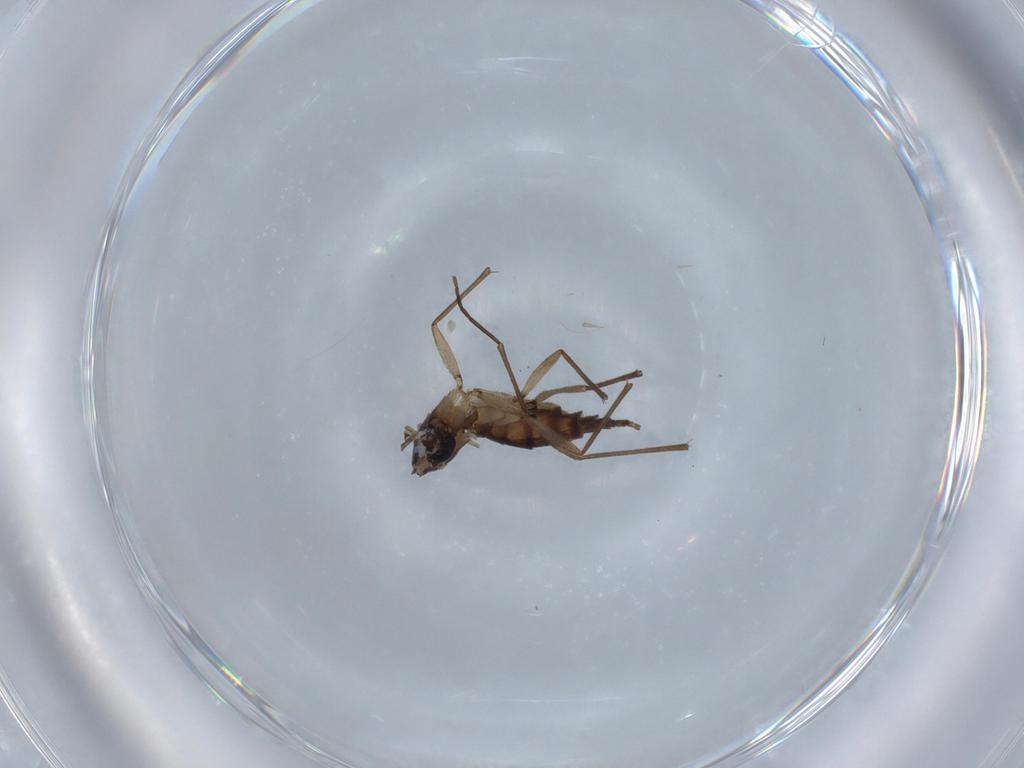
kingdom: Animalia
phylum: Arthropoda
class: Insecta
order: Diptera
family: Sciaridae
